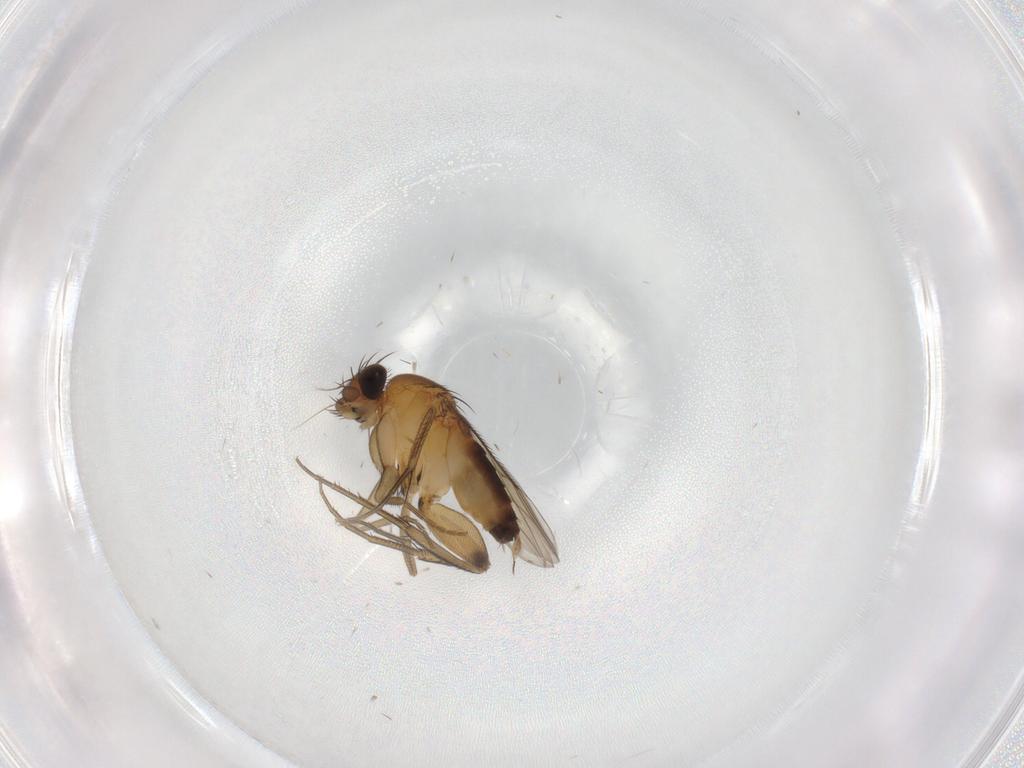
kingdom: Animalia
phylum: Arthropoda
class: Insecta
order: Diptera
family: Phoridae
